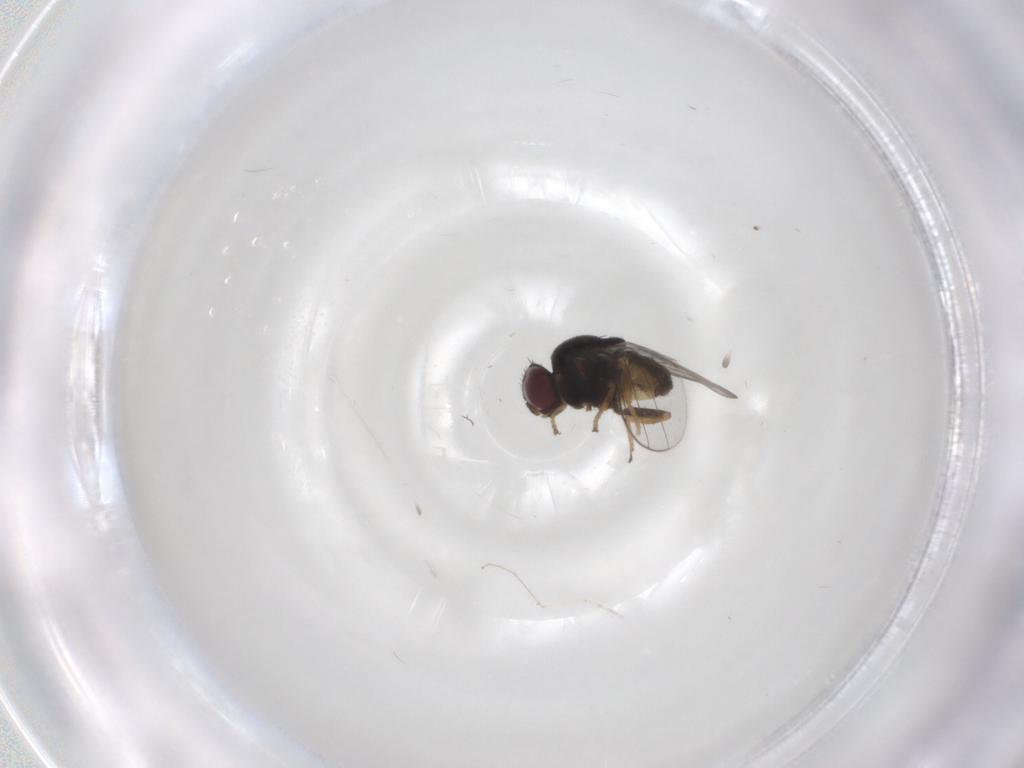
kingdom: Animalia
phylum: Arthropoda
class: Insecta
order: Diptera
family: Chloropidae
